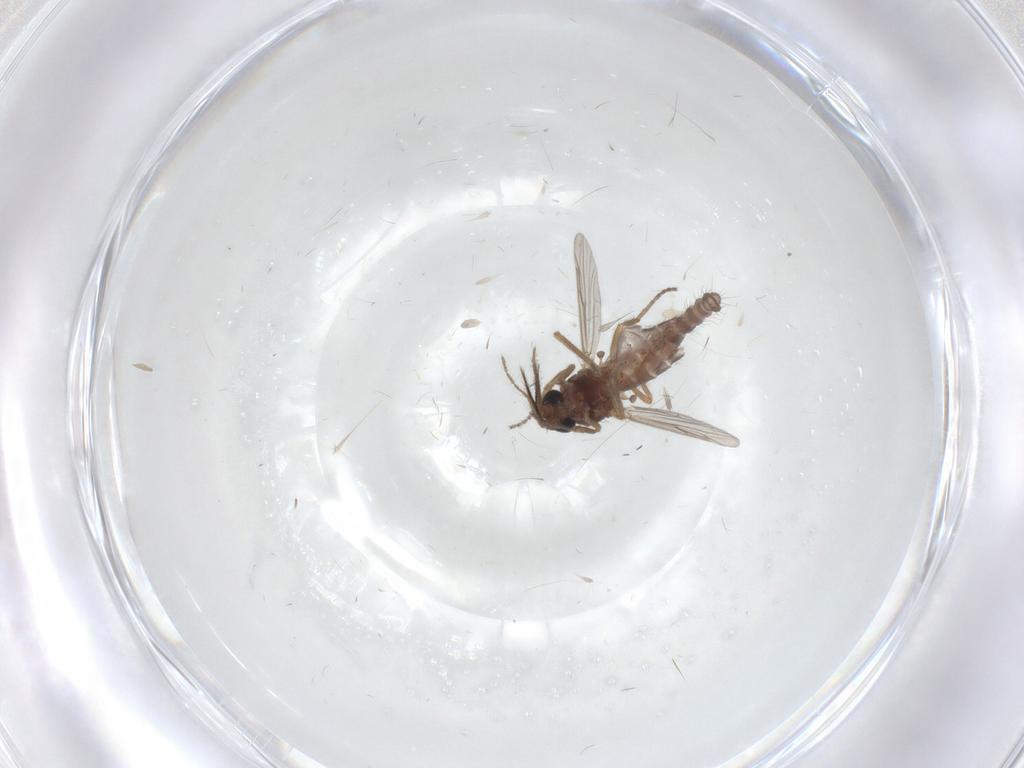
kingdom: Animalia
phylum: Arthropoda
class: Insecta
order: Diptera
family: Ceratopogonidae
